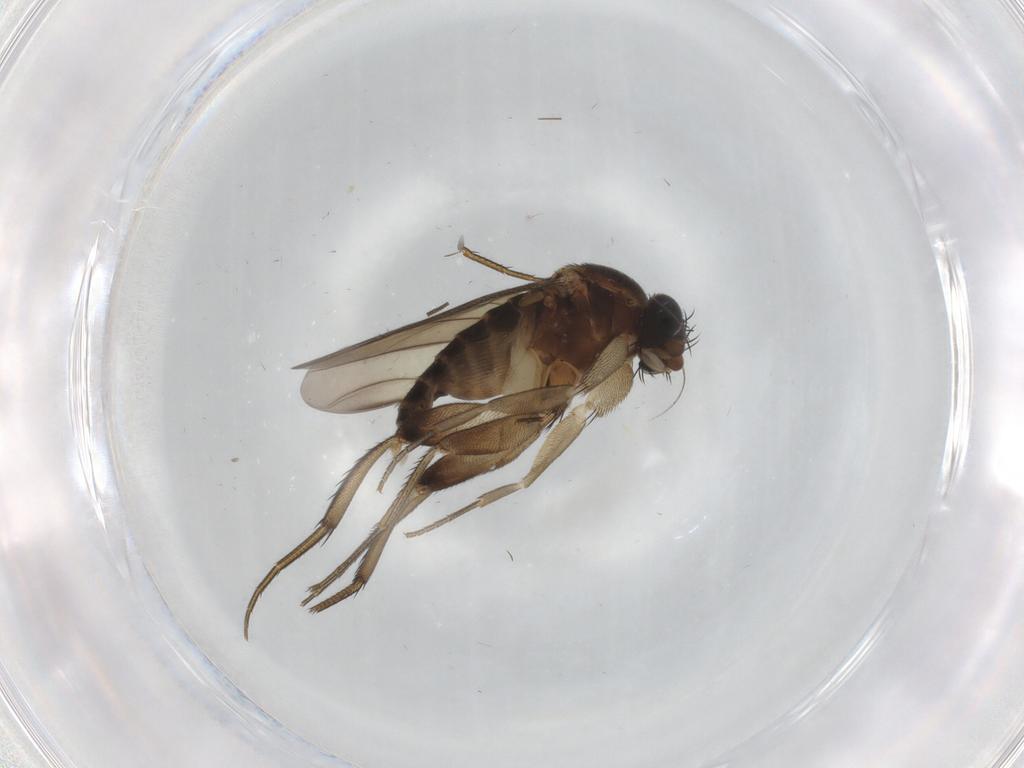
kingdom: Animalia
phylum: Arthropoda
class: Insecta
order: Diptera
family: Phoridae
